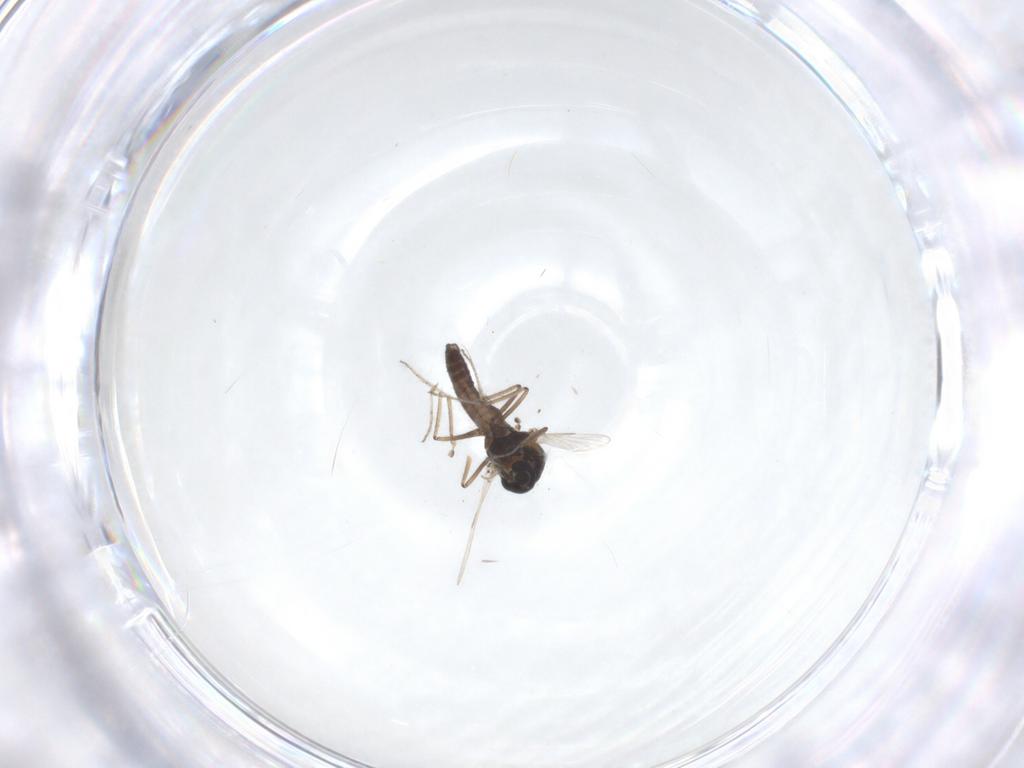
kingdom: Animalia
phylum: Arthropoda
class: Insecta
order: Diptera
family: Ceratopogonidae
